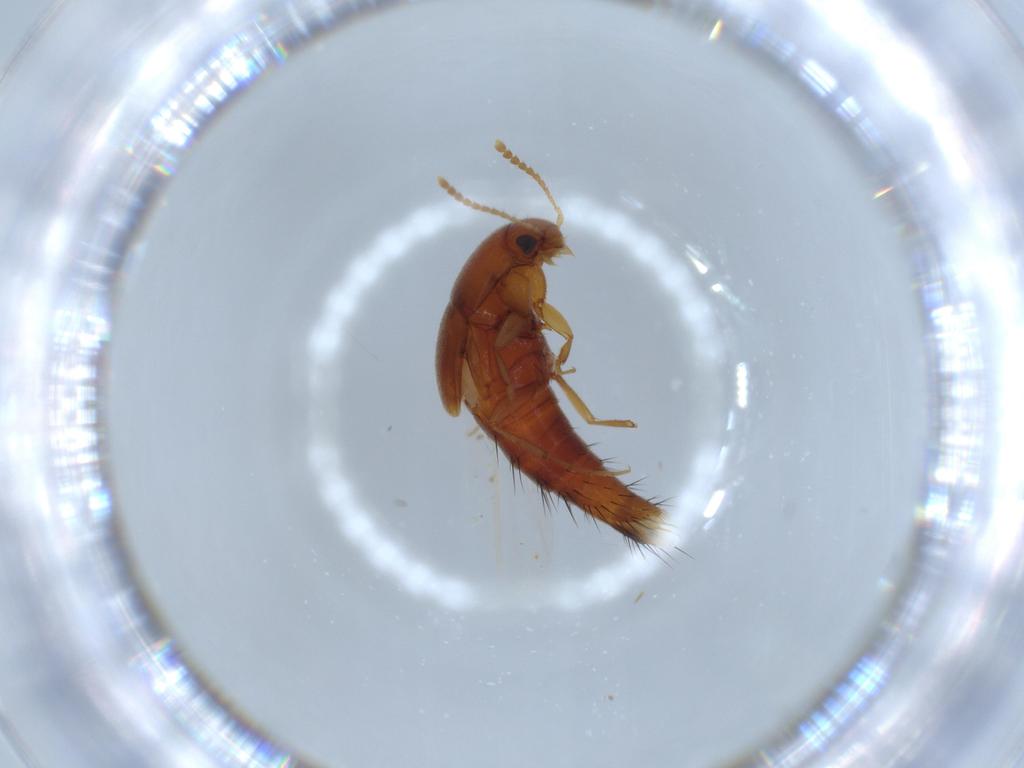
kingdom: Animalia
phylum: Arthropoda
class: Insecta
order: Coleoptera
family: Staphylinidae
